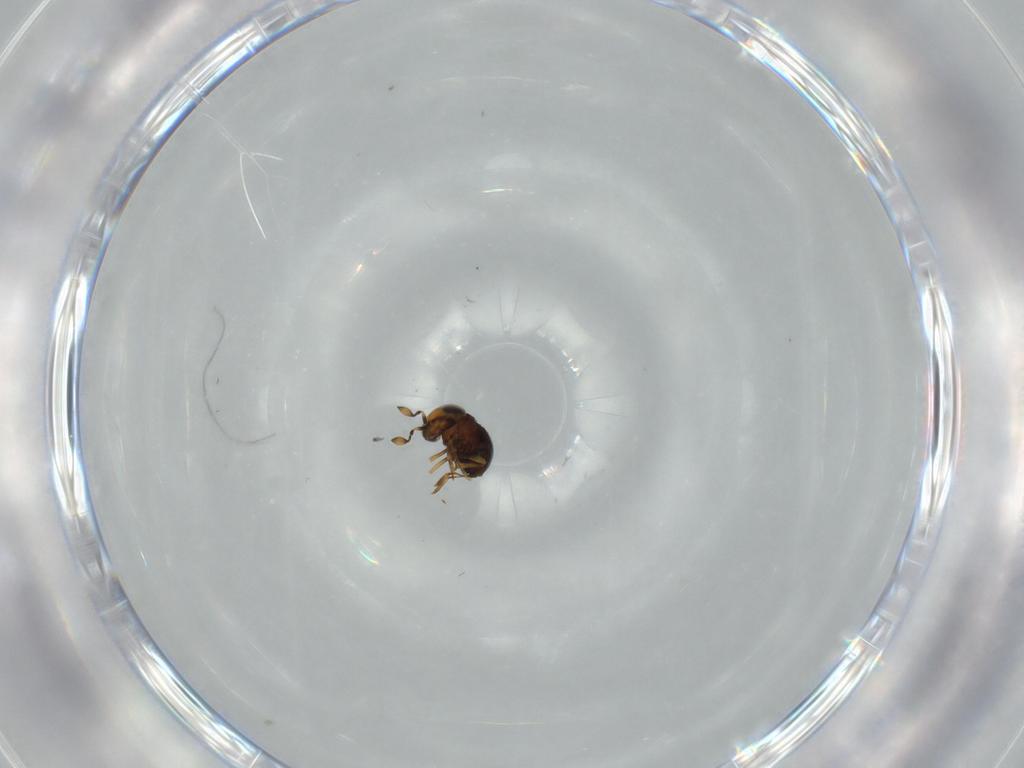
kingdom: Animalia
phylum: Arthropoda
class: Insecta
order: Hymenoptera
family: Scelionidae
